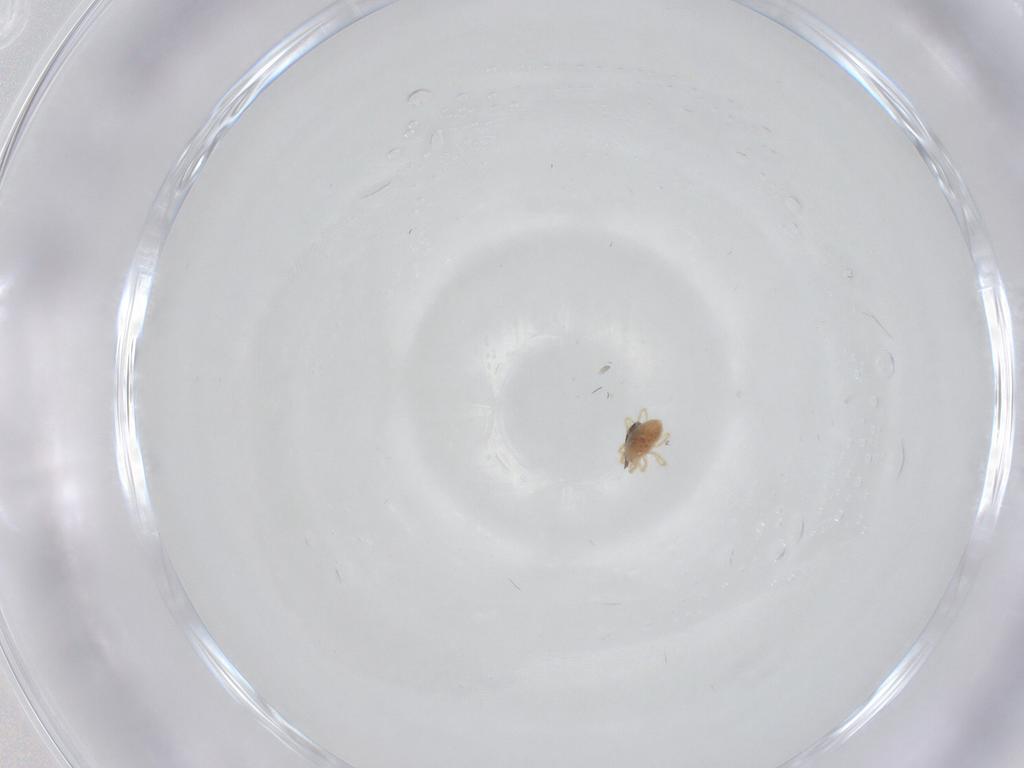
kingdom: Animalia
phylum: Arthropoda
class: Arachnida
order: Trombidiformes
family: Sphaerolichidae
